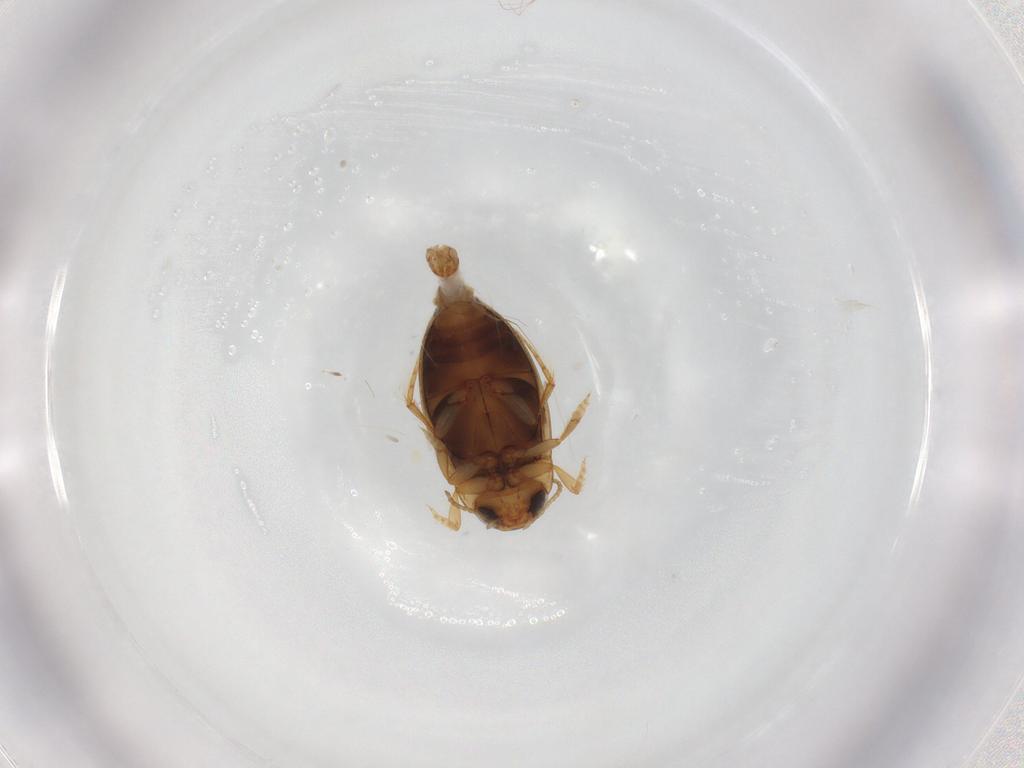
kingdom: Animalia
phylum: Arthropoda
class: Insecta
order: Coleoptera
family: Dytiscidae
